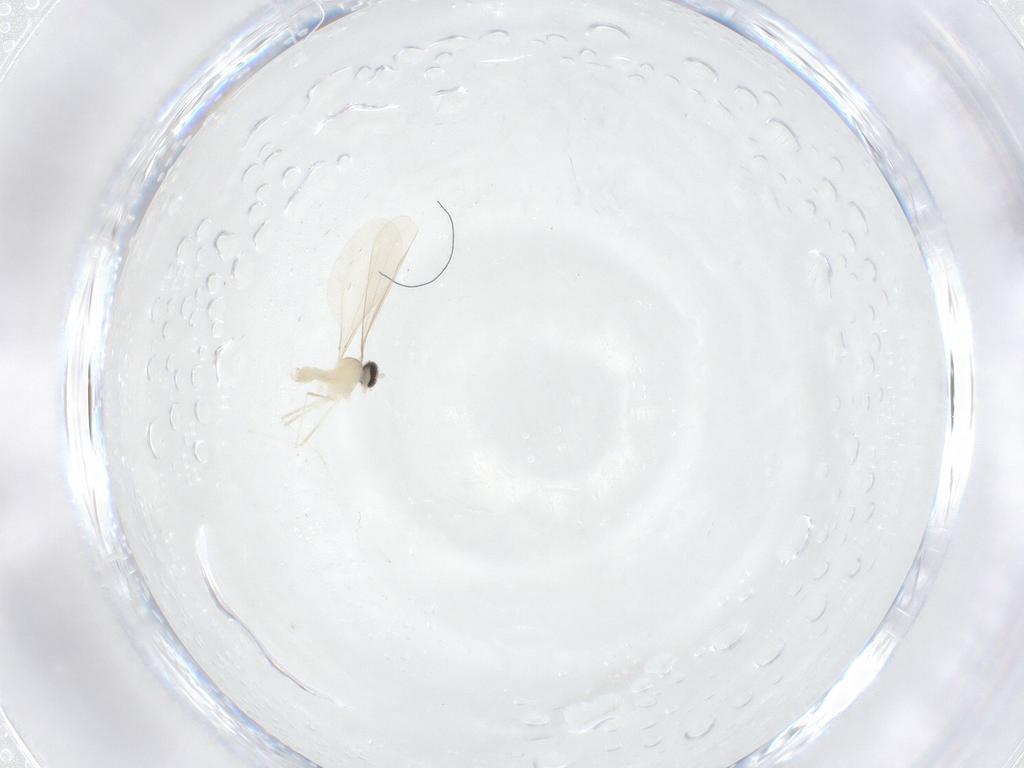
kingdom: Animalia
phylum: Arthropoda
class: Insecta
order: Diptera
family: Cecidomyiidae
